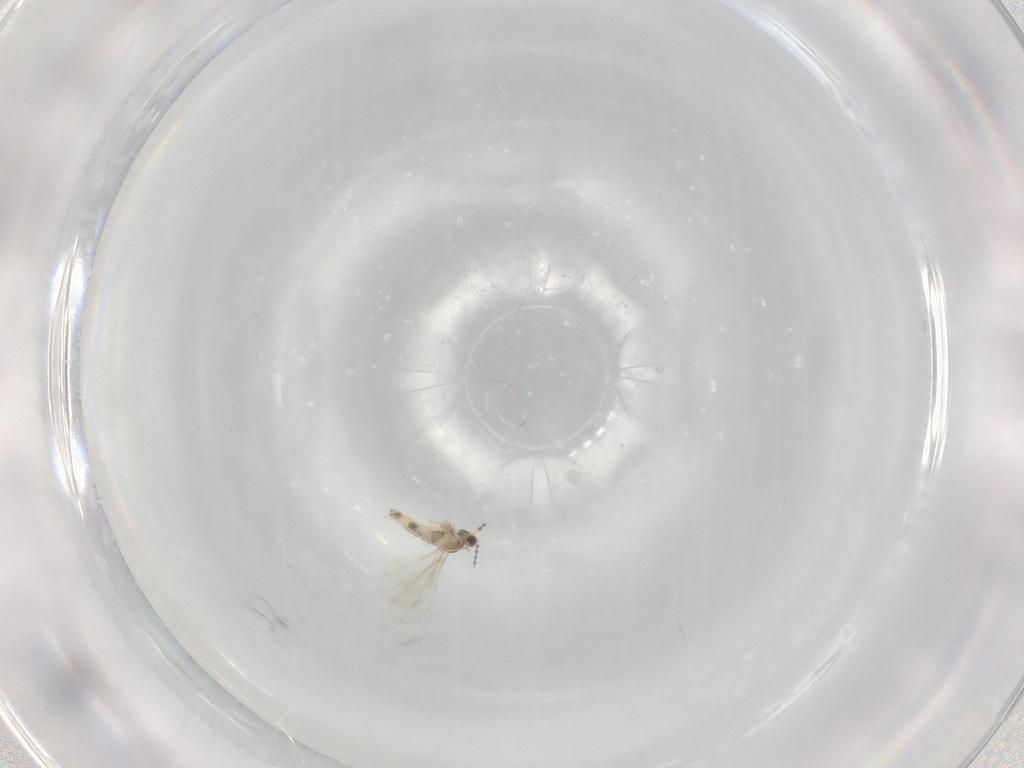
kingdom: Animalia
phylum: Arthropoda
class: Insecta
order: Diptera
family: Cecidomyiidae
